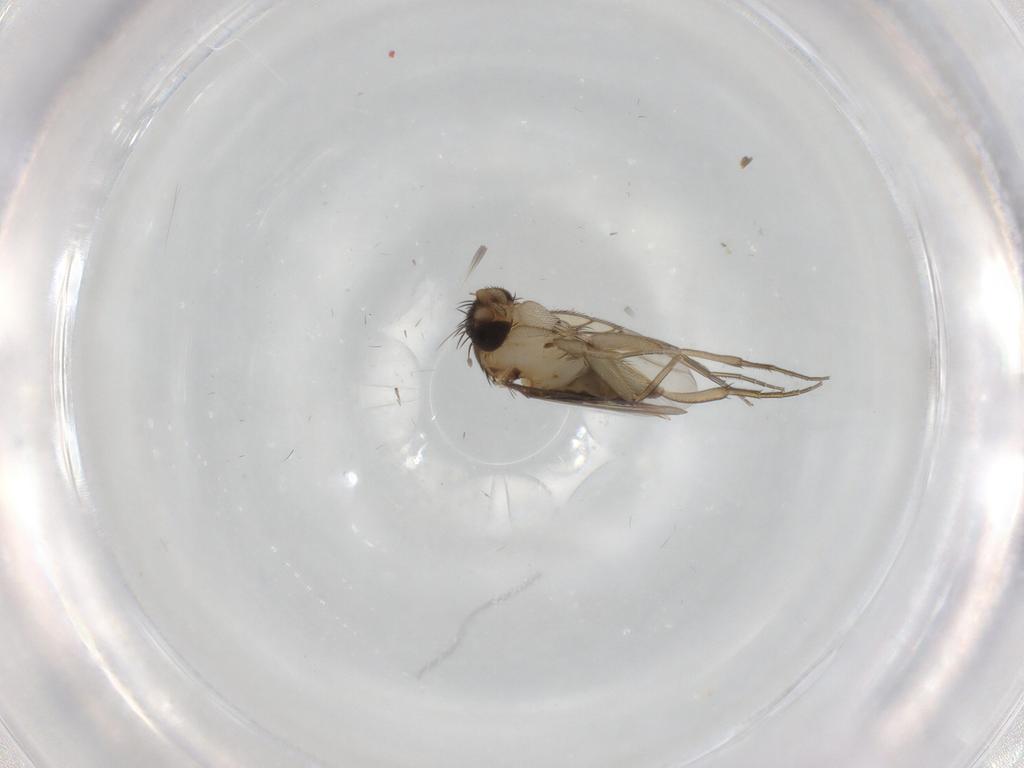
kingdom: Animalia
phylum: Arthropoda
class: Insecta
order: Diptera
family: Phoridae
